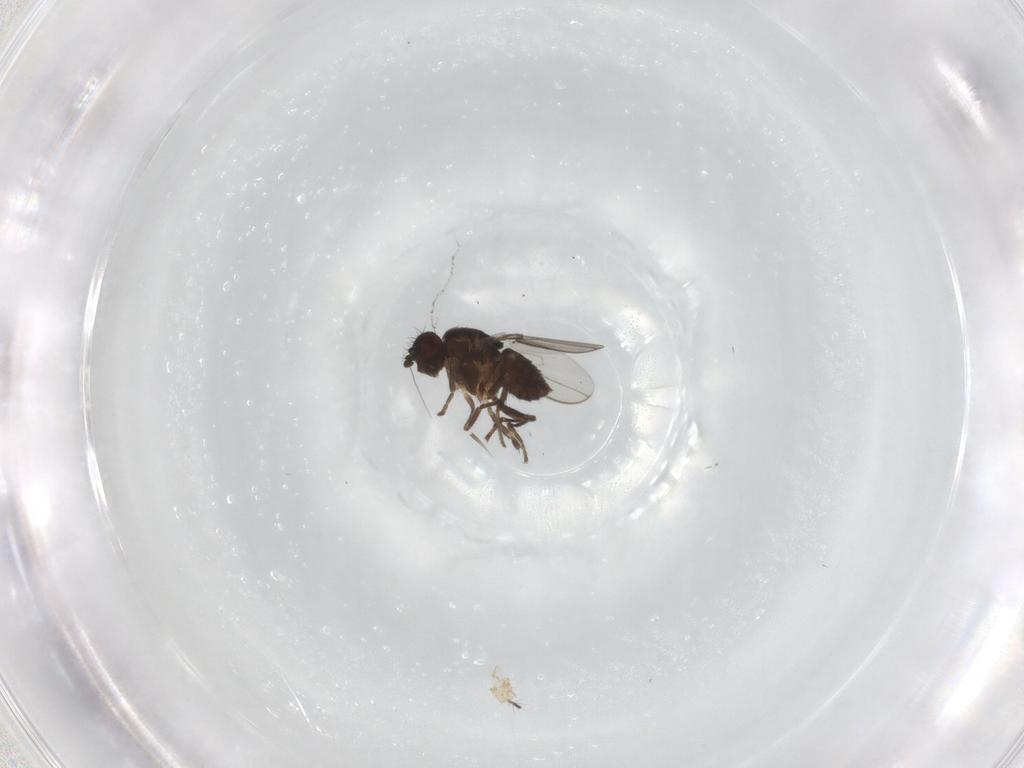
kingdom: Animalia
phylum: Arthropoda
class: Insecta
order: Diptera
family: Sphaeroceridae
